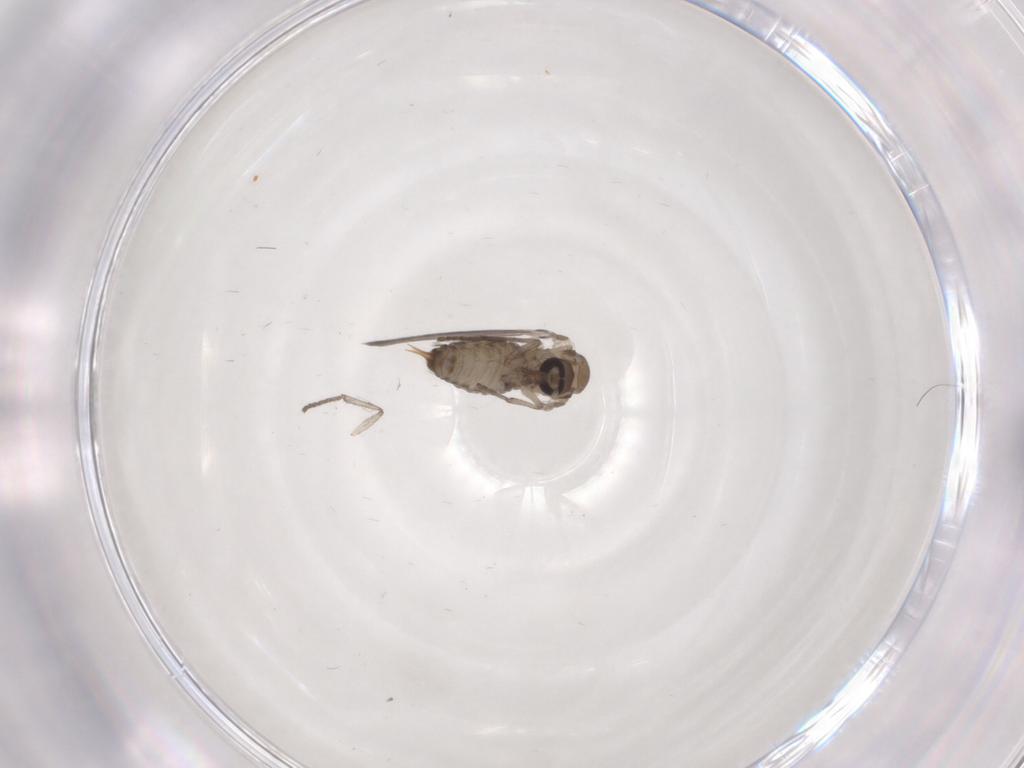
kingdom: Animalia
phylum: Arthropoda
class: Insecta
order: Diptera
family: Psychodidae
